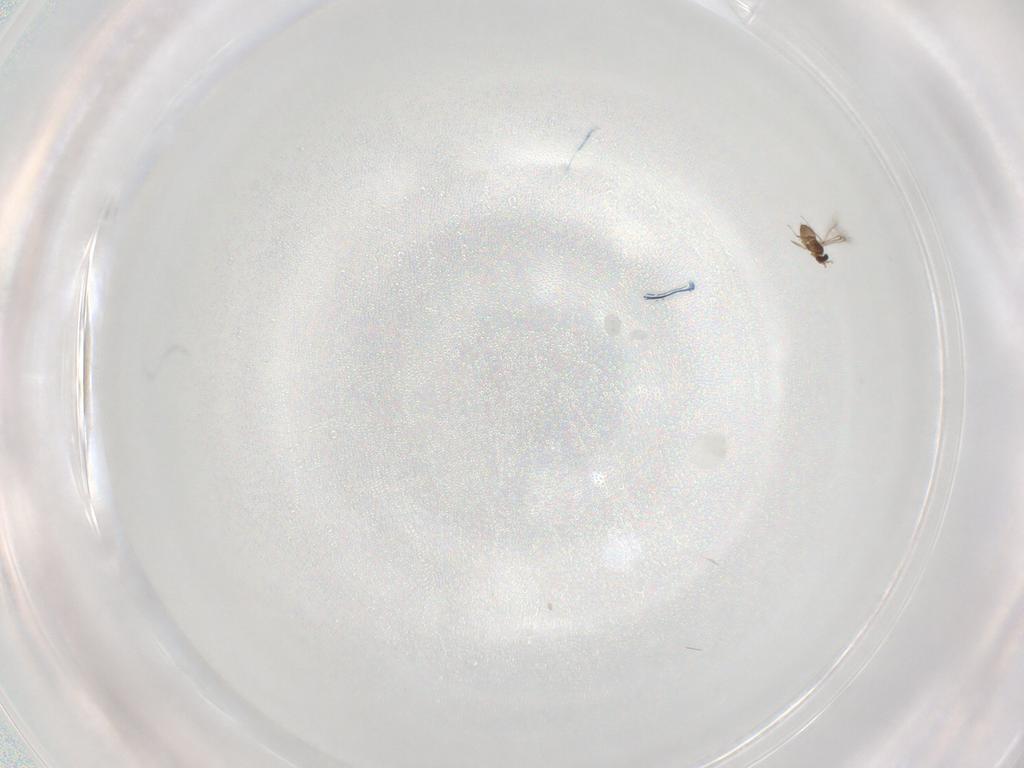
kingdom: Animalia
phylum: Arthropoda
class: Insecta
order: Hymenoptera
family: Mymaridae
